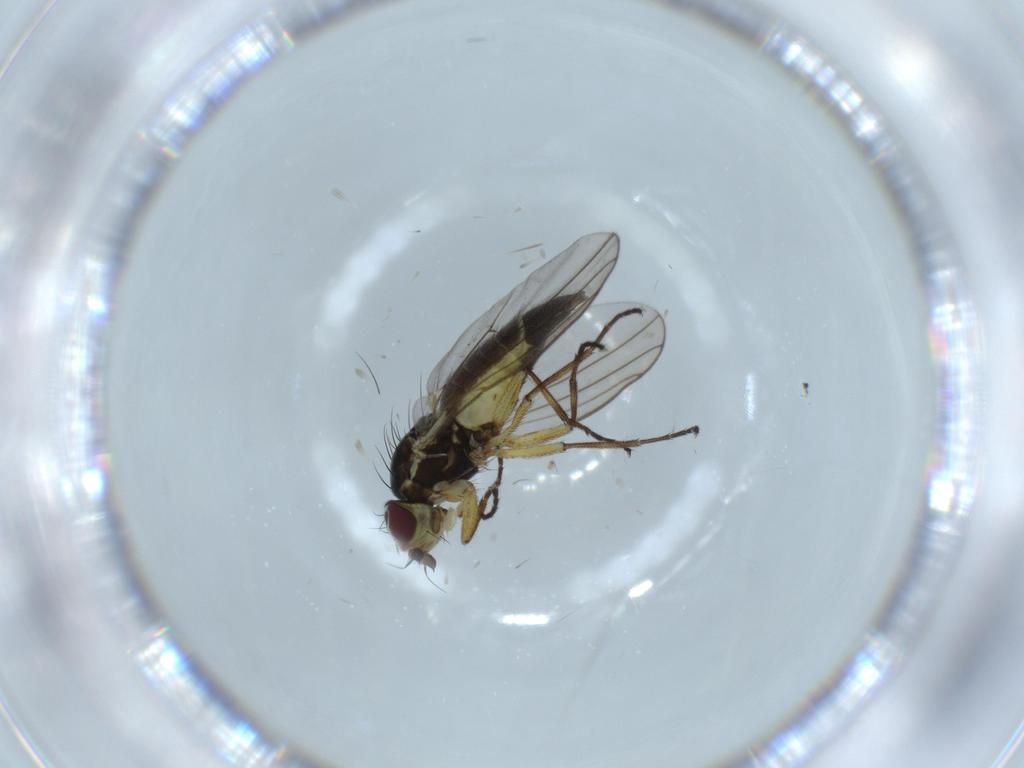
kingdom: Animalia
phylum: Arthropoda
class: Insecta
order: Diptera
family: Agromyzidae
